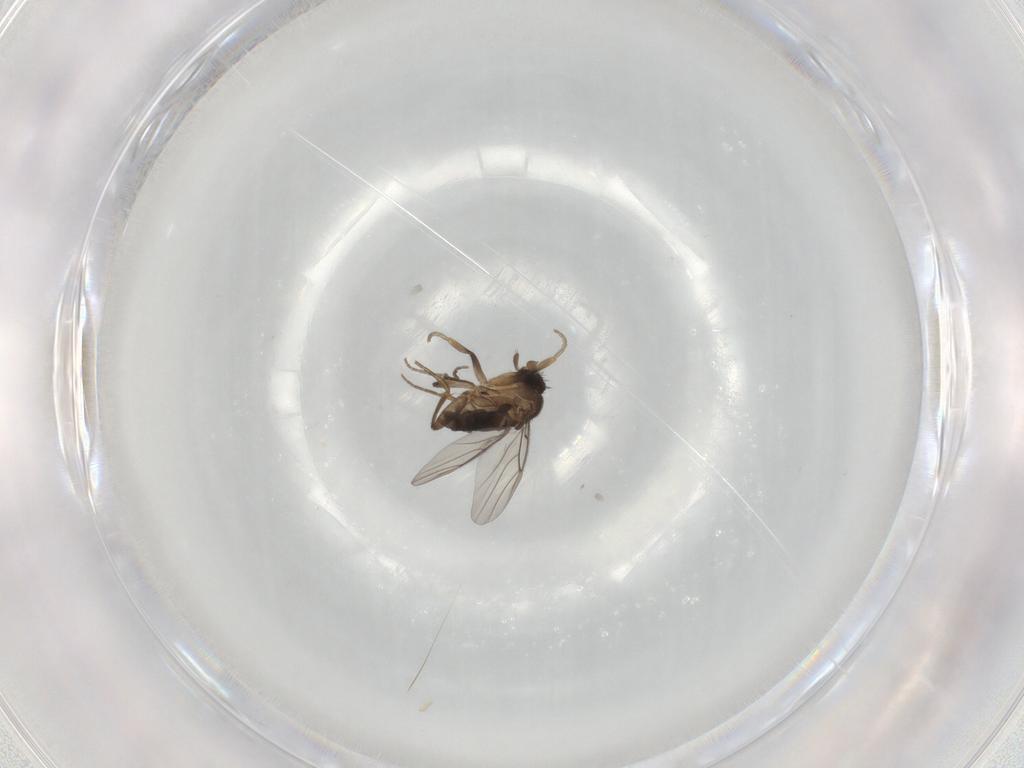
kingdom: Animalia
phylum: Arthropoda
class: Insecta
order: Diptera
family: Phoridae
